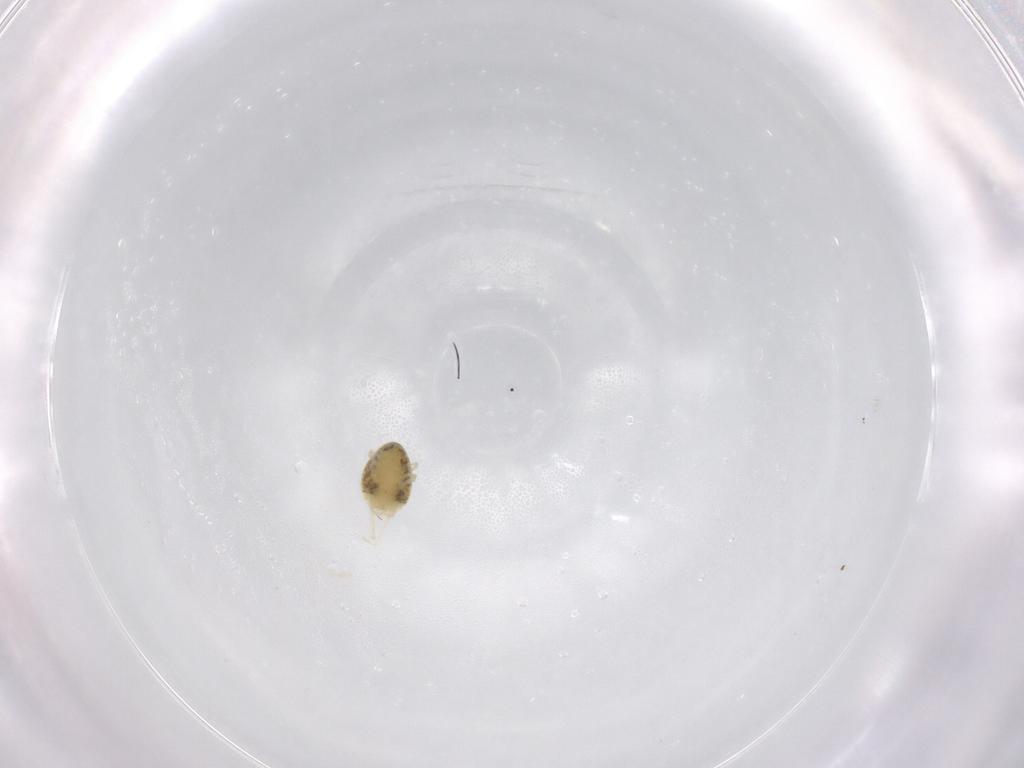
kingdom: Animalia
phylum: Arthropoda
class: Arachnida
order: Trombidiformes
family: Tetranychidae
